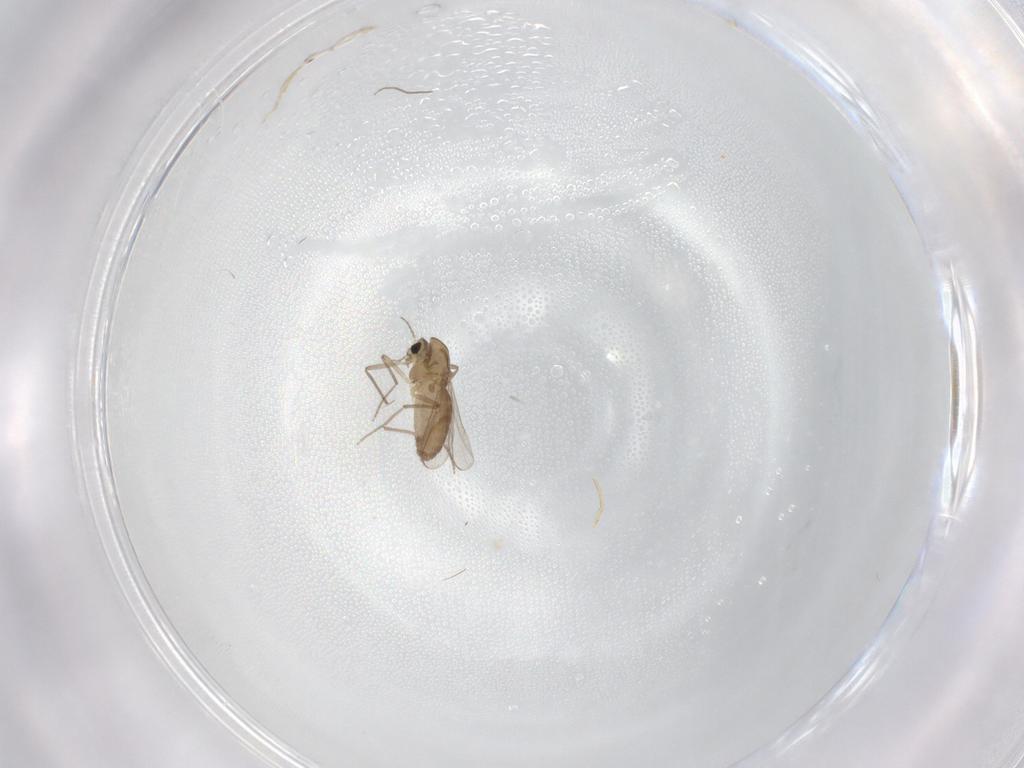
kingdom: Animalia
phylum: Arthropoda
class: Insecta
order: Diptera
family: Chironomidae
